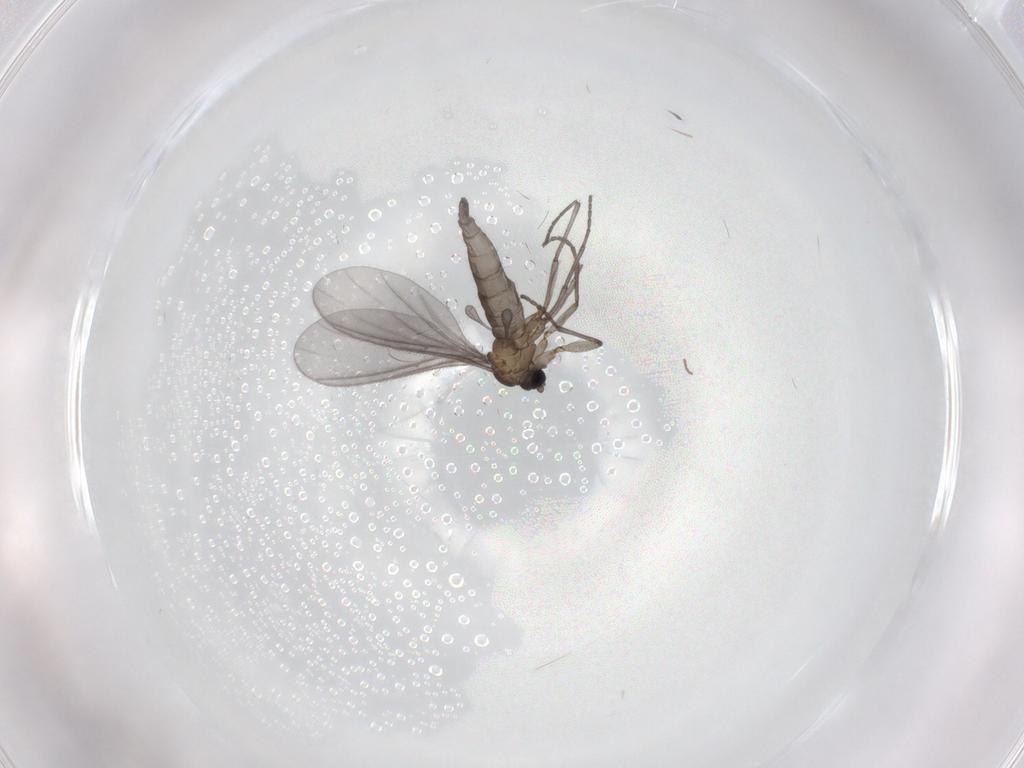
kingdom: Animalia
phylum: Arthropoda
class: Insecta
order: Diptera
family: Sciaridae
